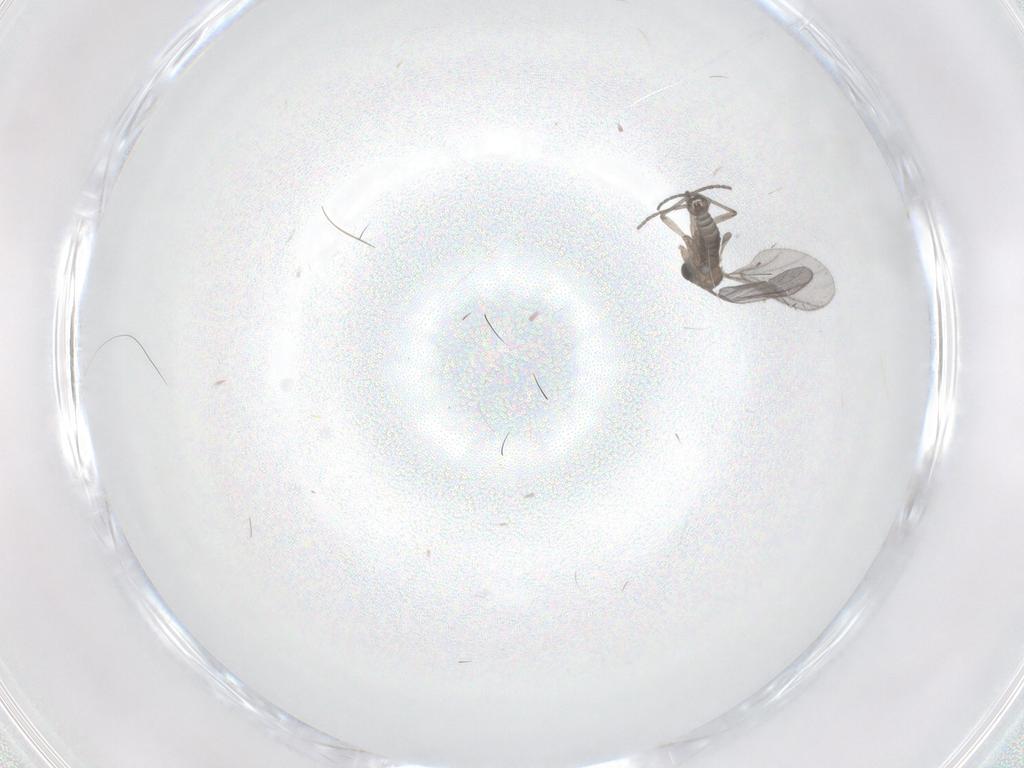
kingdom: Animalia
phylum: Arthropoda
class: Insecta
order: Diptera
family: Sciaridae
